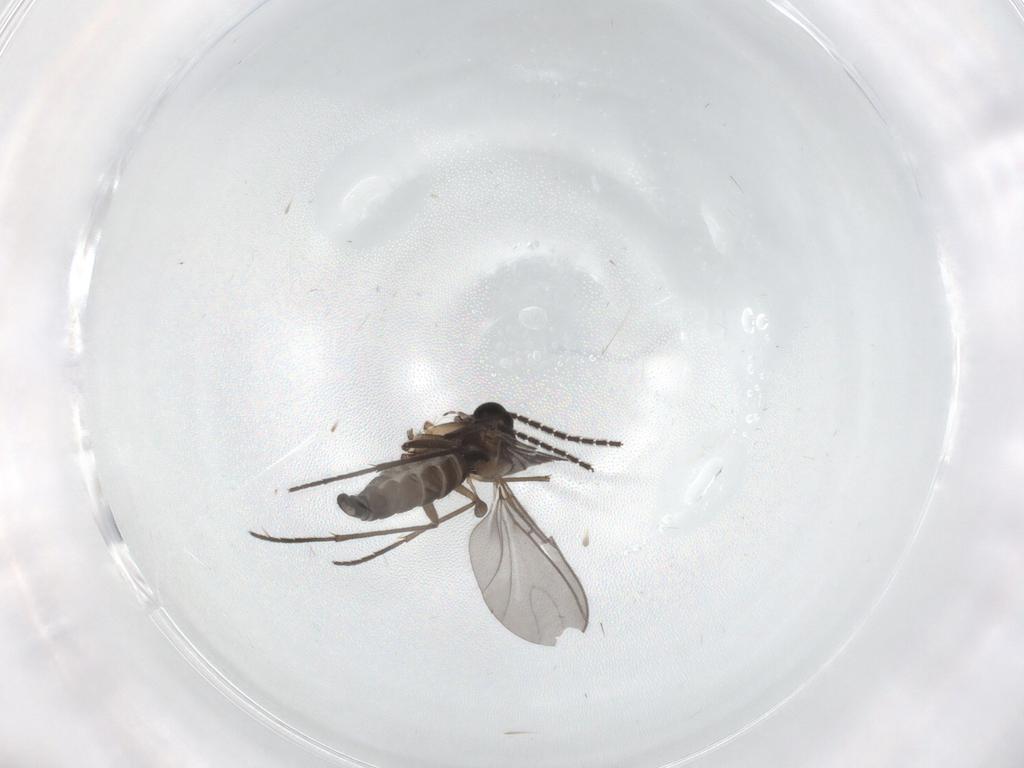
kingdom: Animalia
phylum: Arthropoda
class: Insecta
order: Diptera
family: Sciaridae
